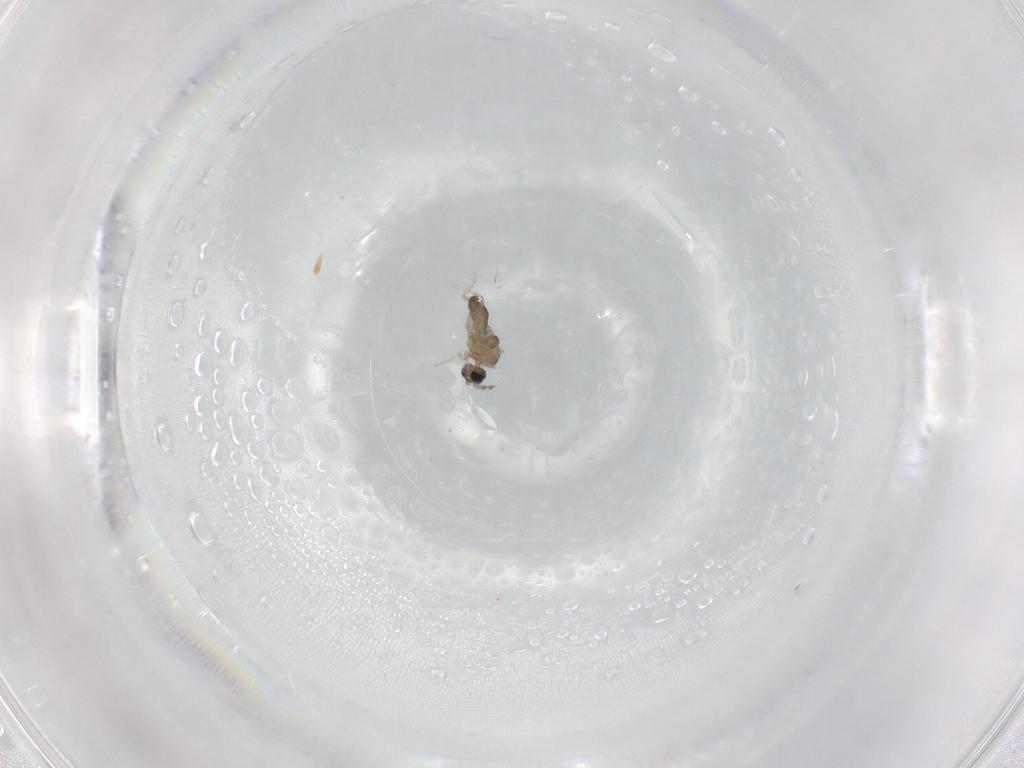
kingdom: Animalia
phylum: Arthropoda
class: Insecta
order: Diptera
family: Cecidomyiidae
